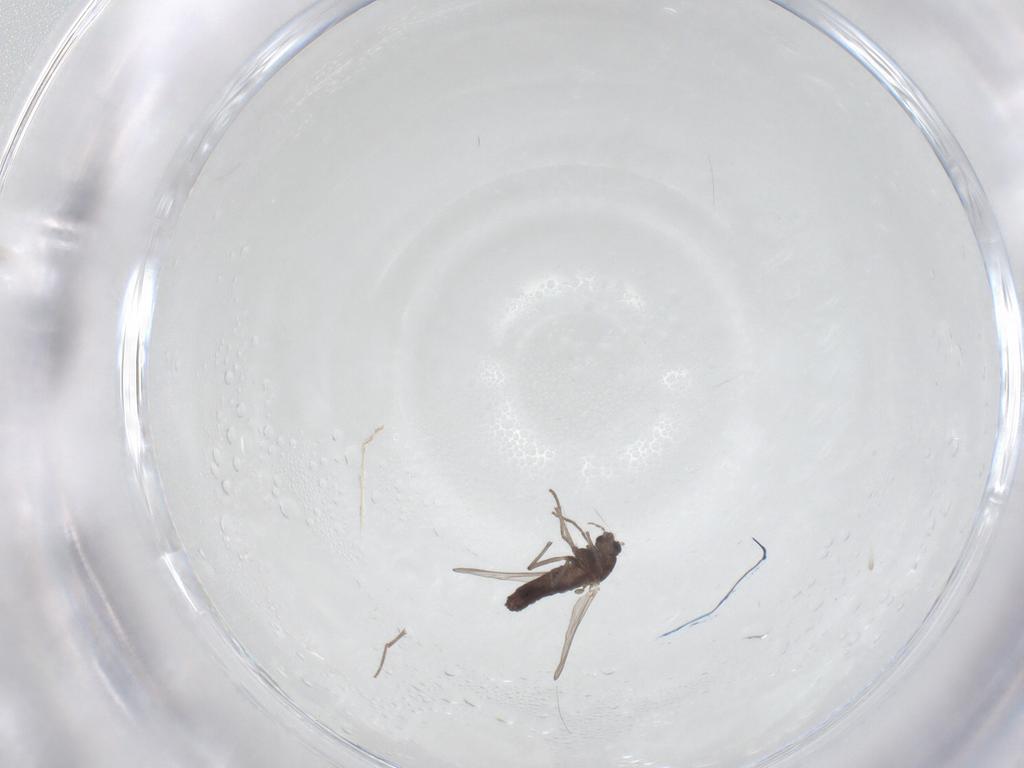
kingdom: Animalia
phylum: Arthropoda
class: Insecta
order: Diptera
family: Chironomidae
